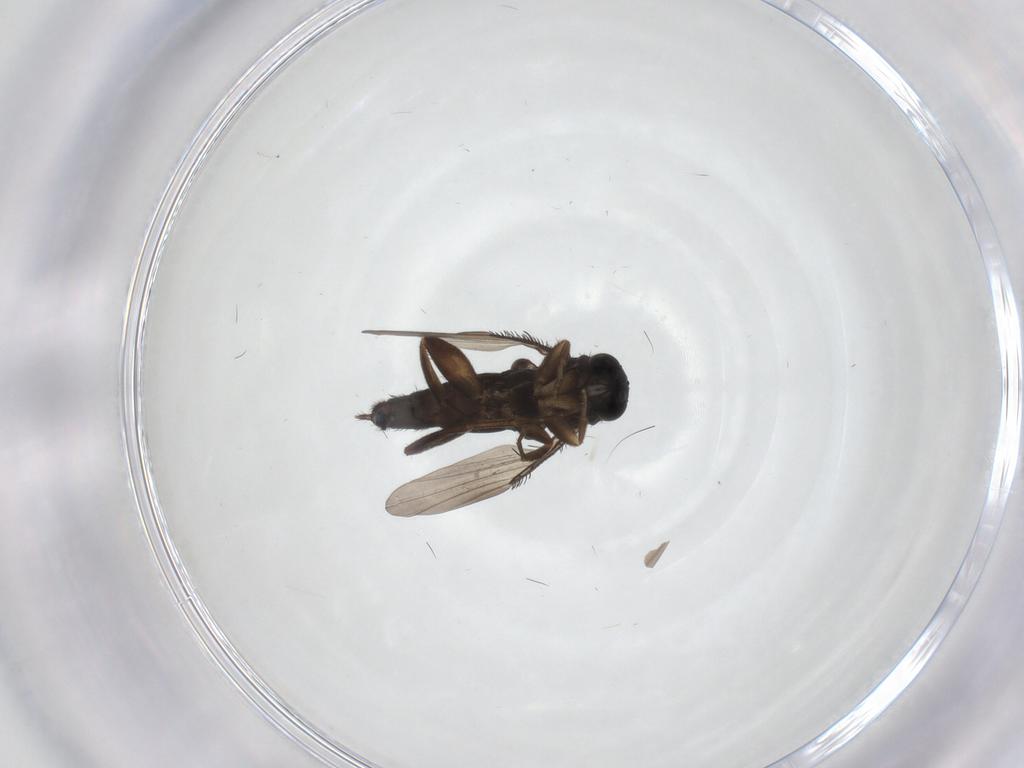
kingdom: Animalia
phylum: Arthropoda
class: Insecta
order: Diptera
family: Phoridae
